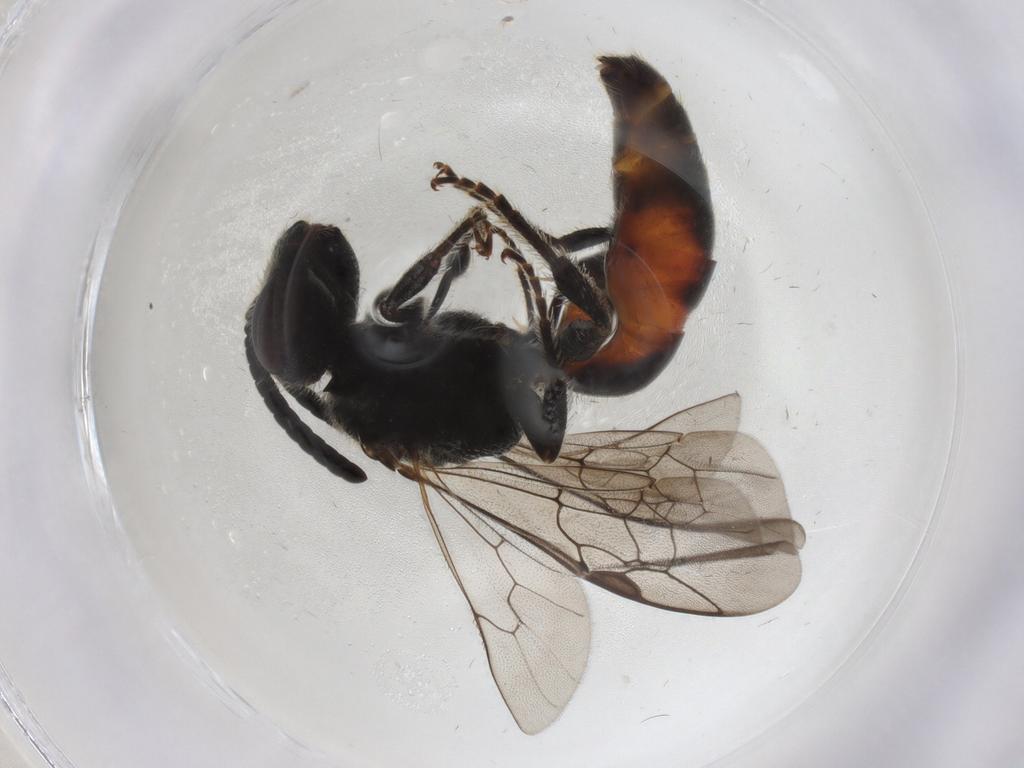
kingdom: Animalia
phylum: Arthropoda
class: Insecta
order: Hymenoptera
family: Halictidae
